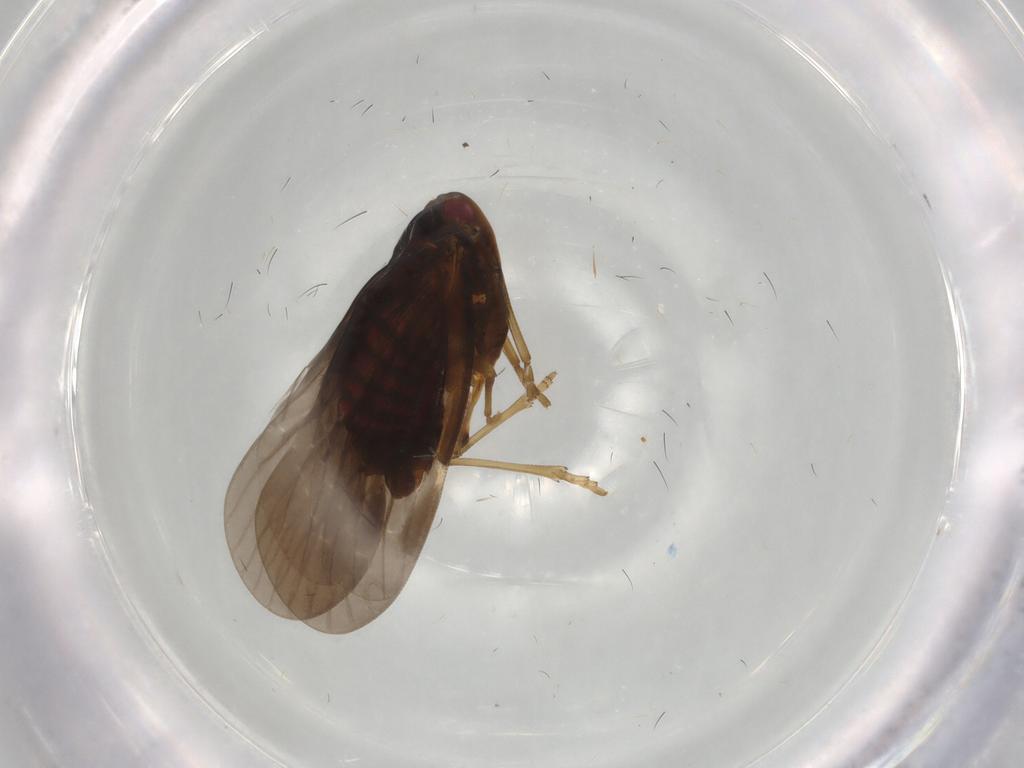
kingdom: Animalia
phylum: Arthropoda
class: Insecta
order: Hemiptera
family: Derbidae
